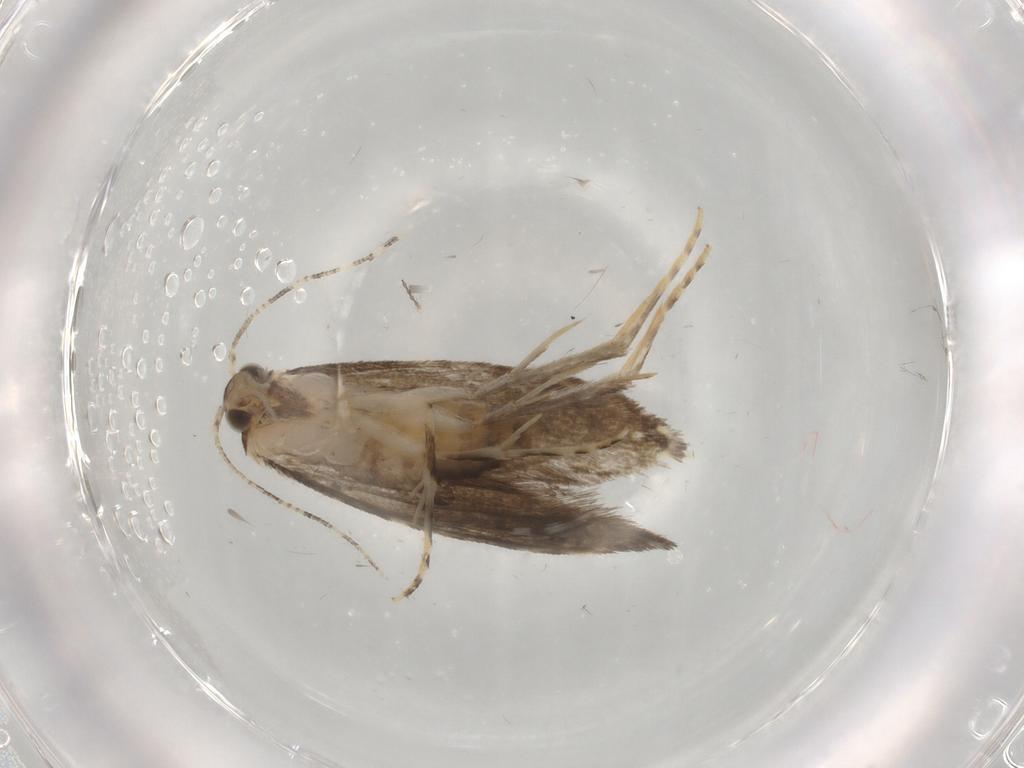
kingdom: Animalia
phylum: Arthropoda
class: Insecta
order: Lepidoptera
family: Tineidae
